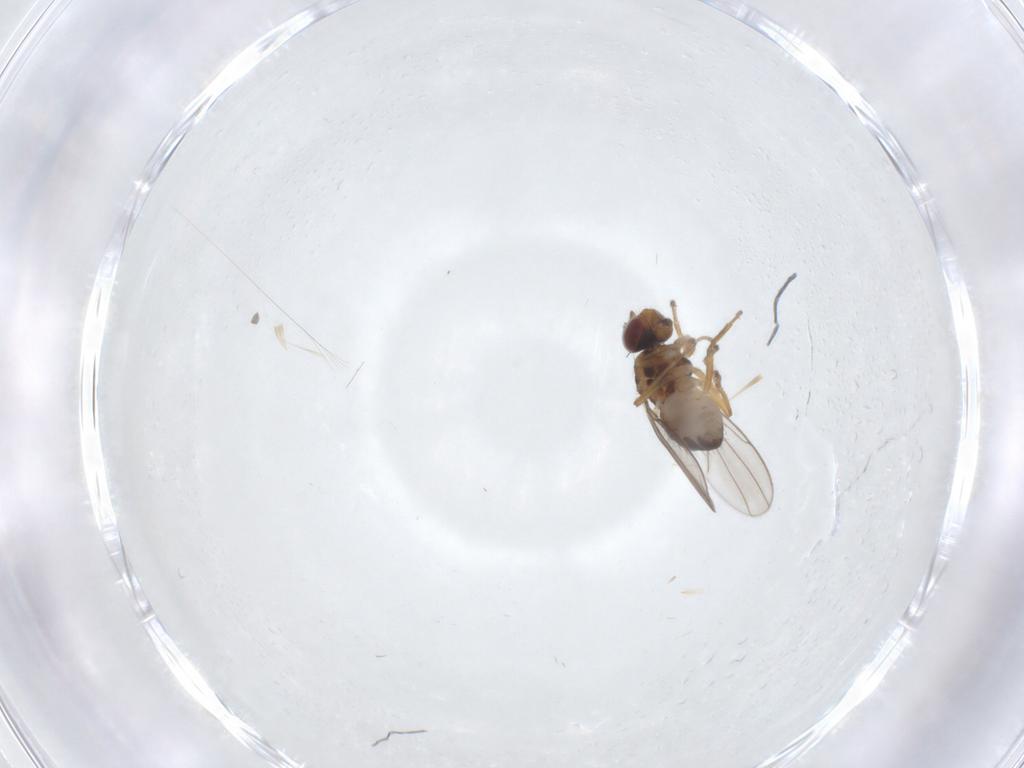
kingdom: Animalia
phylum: Arthropoda
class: Insecta
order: Diptera
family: Ephydridae
